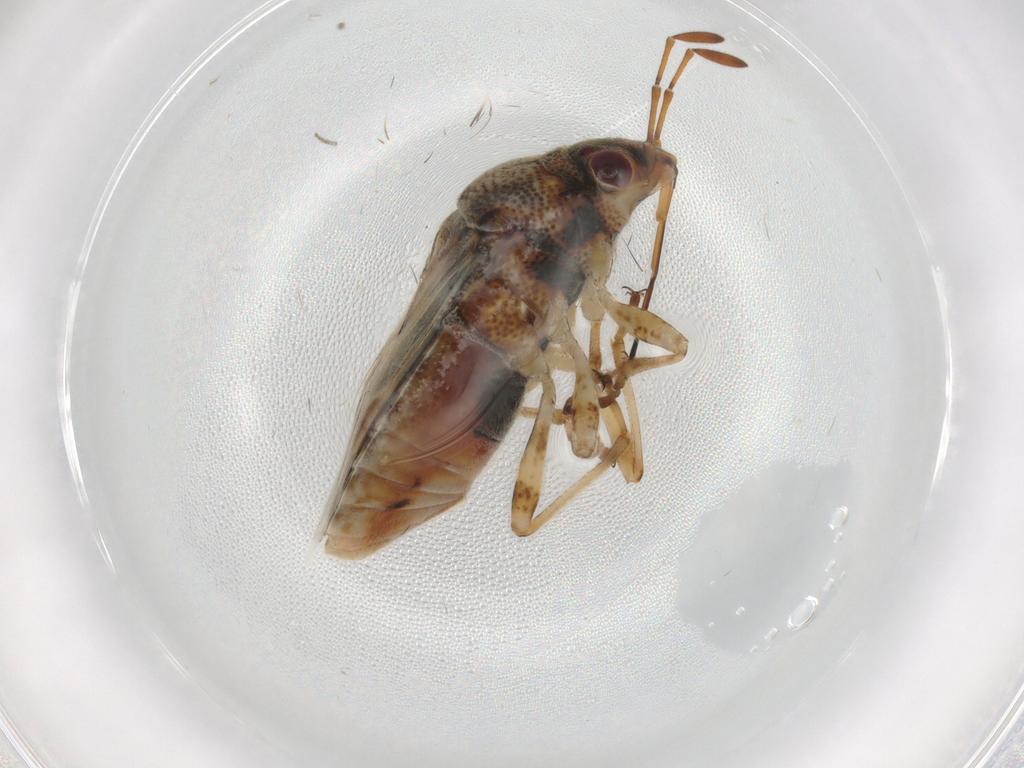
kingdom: Animalia
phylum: Arthropoda
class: Insecta
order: Hemiptera
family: Lygaeidae
